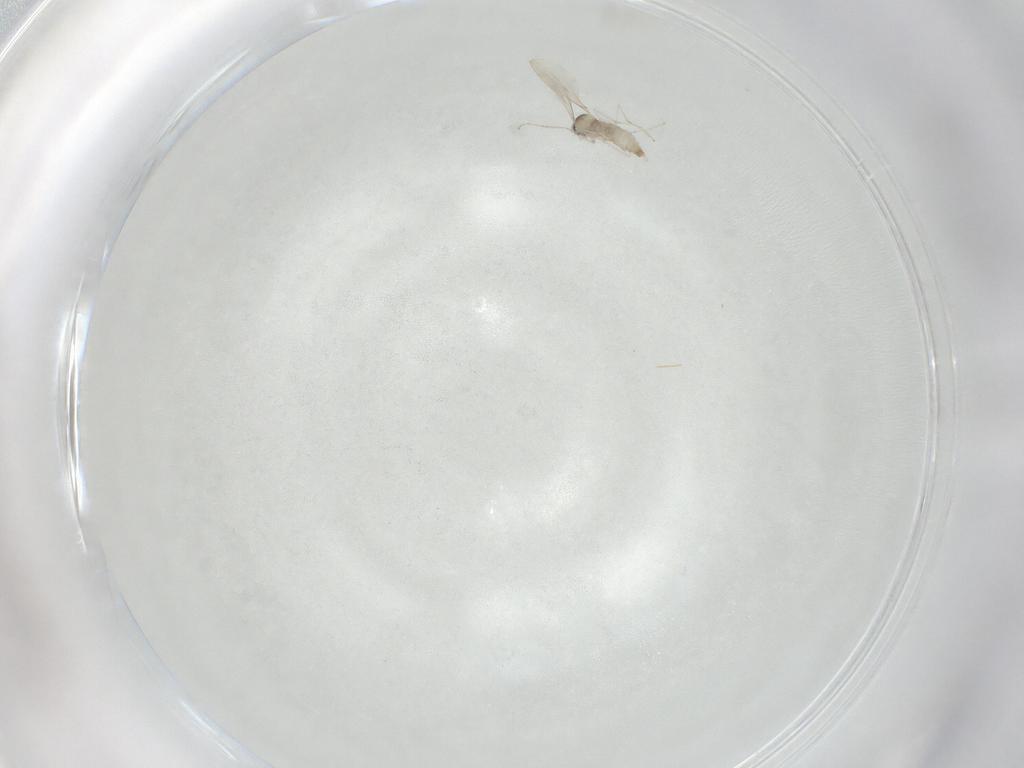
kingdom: Animalia
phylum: Arthropoda
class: Insecta
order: Diptera
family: Cecidomyiidae
